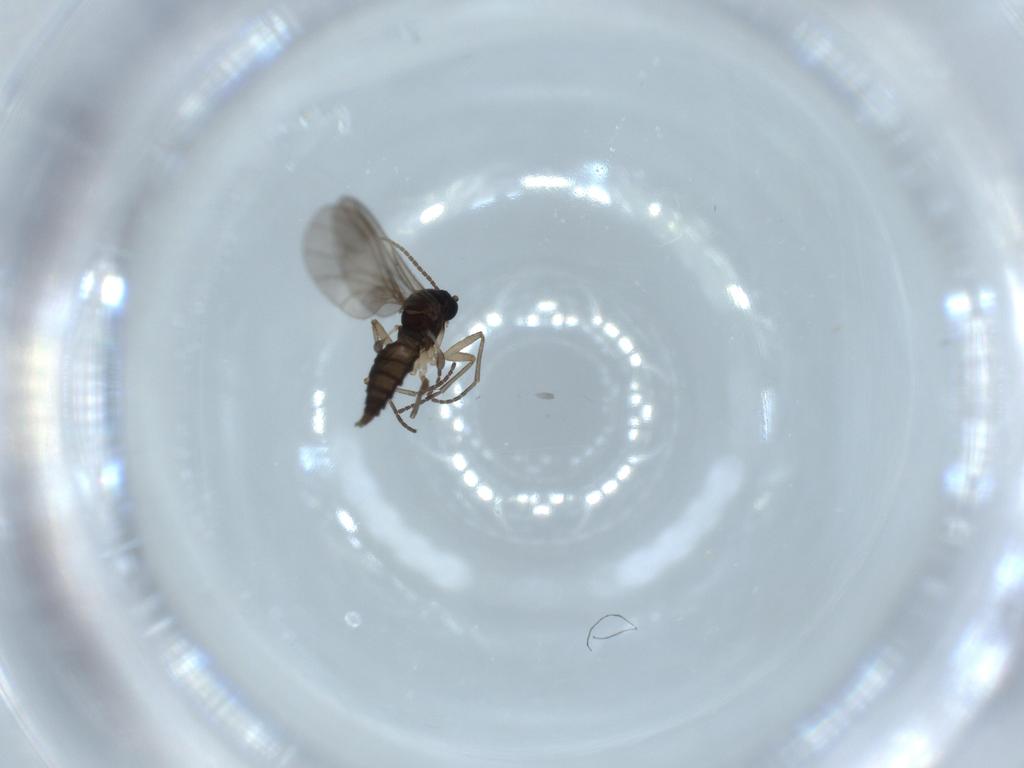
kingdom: Animalia
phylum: Arthropoda
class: Insecta
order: Diptera
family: Sciaridae
